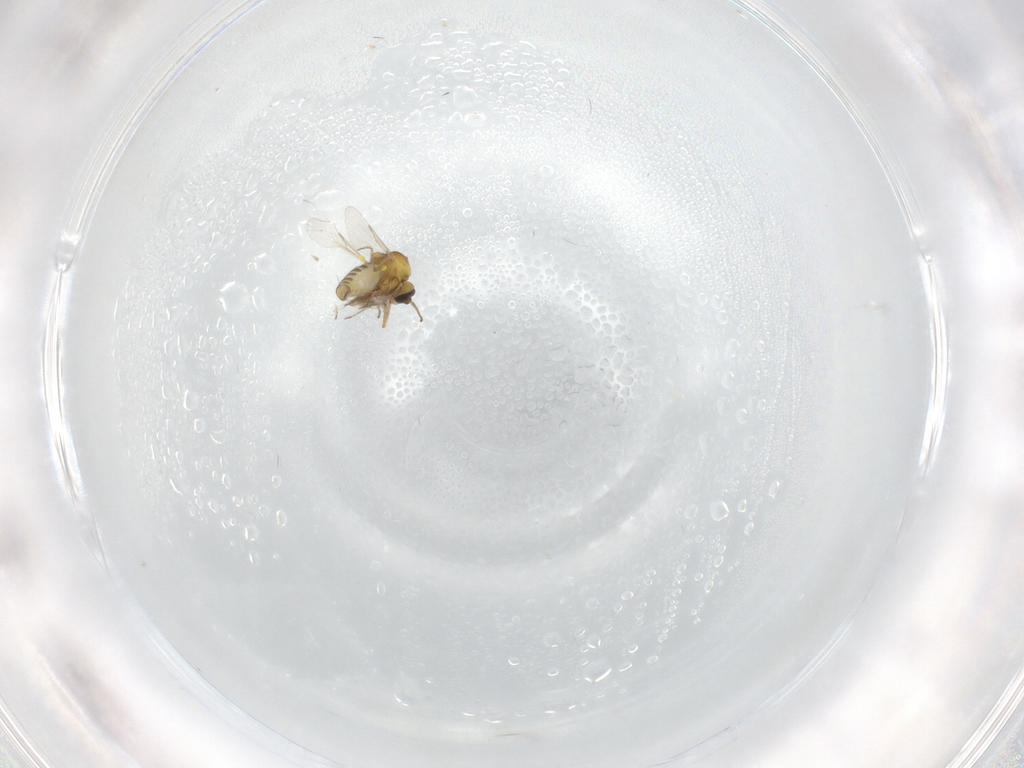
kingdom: Animalia
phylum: Arthropoda
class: Insecta
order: Diptera
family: Ceratopogonidae
